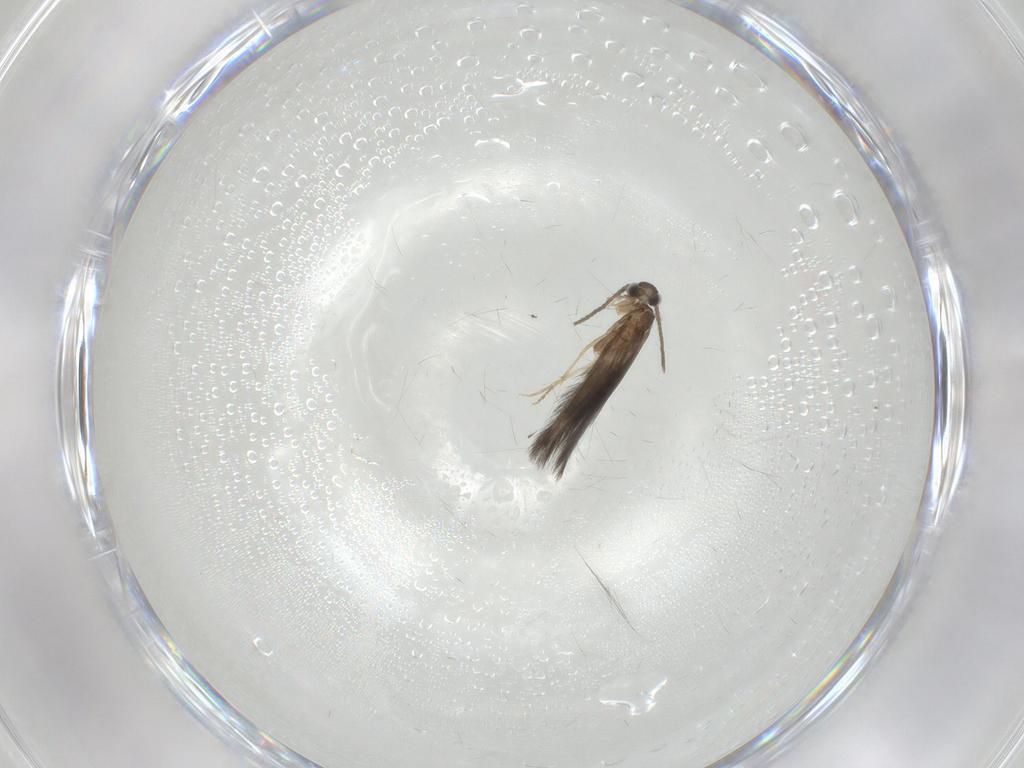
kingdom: Animalia
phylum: Arthropoda
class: Insecta
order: Trichoptera
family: Hydroptilidae
